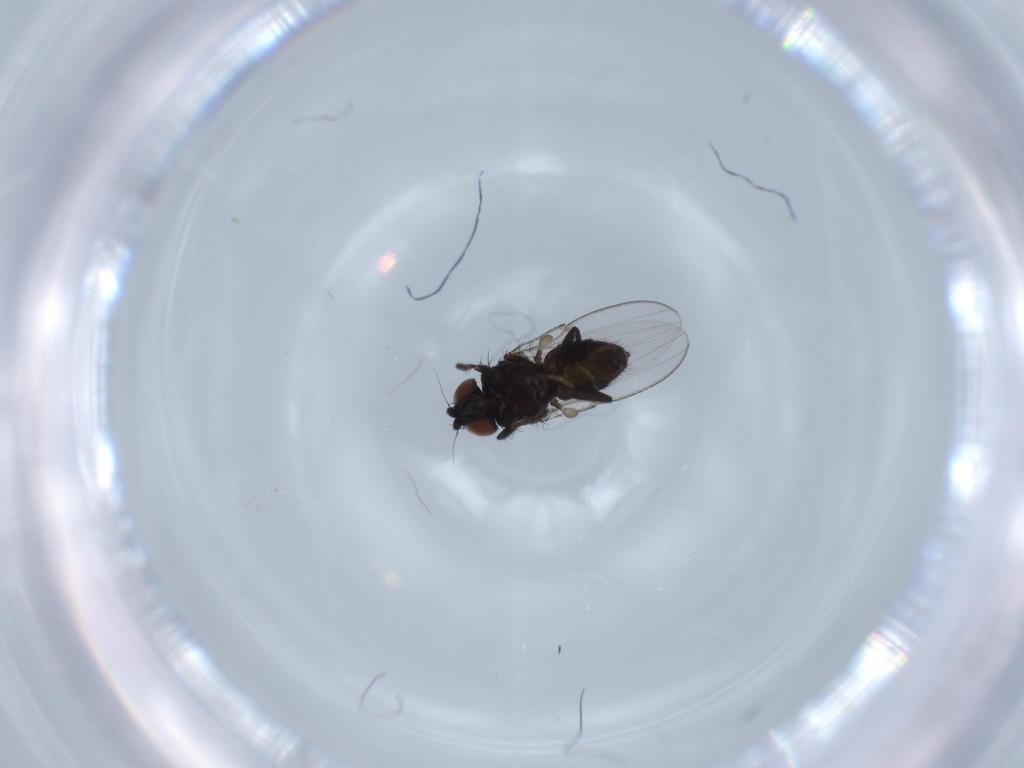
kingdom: Animalia
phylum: Arthropoda
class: Insecta
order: Diptera
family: Milichiidae
